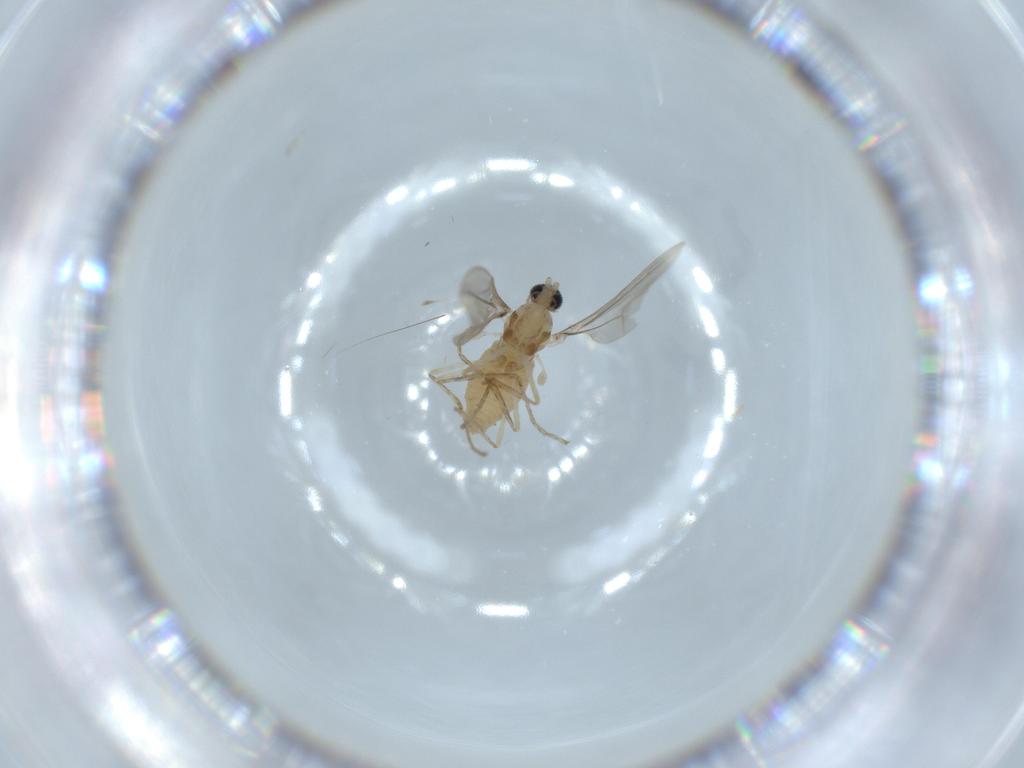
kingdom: Animalia
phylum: Arthropoda
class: Insecta
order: Diptera
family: Cecidomyiidae
